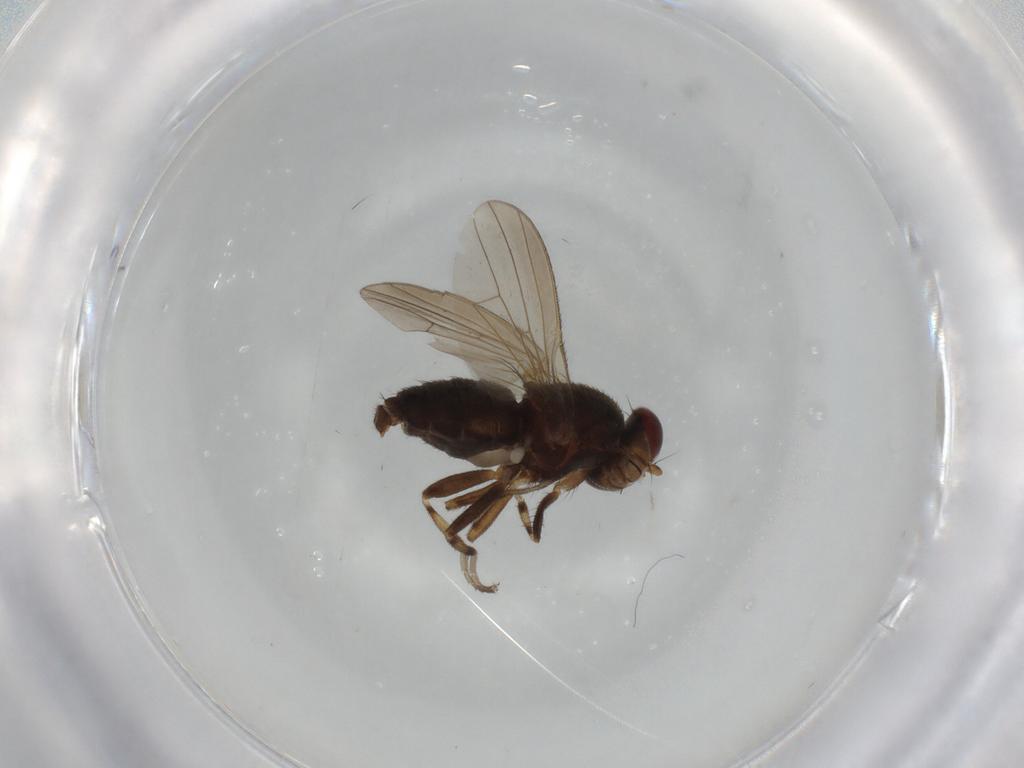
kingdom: Animalia
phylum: Arthropoda
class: Insecta
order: Diptera
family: Heleomyzidae
